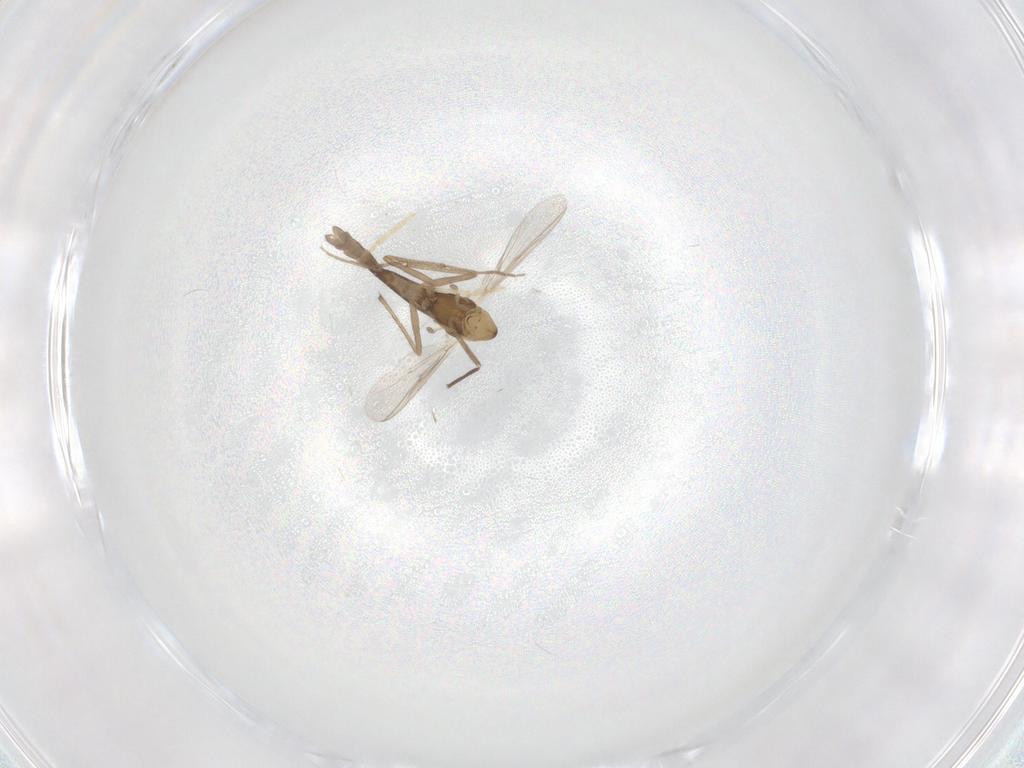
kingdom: Animalia
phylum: Arthropoda
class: Insecta
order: Diptera
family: Chironomidae
